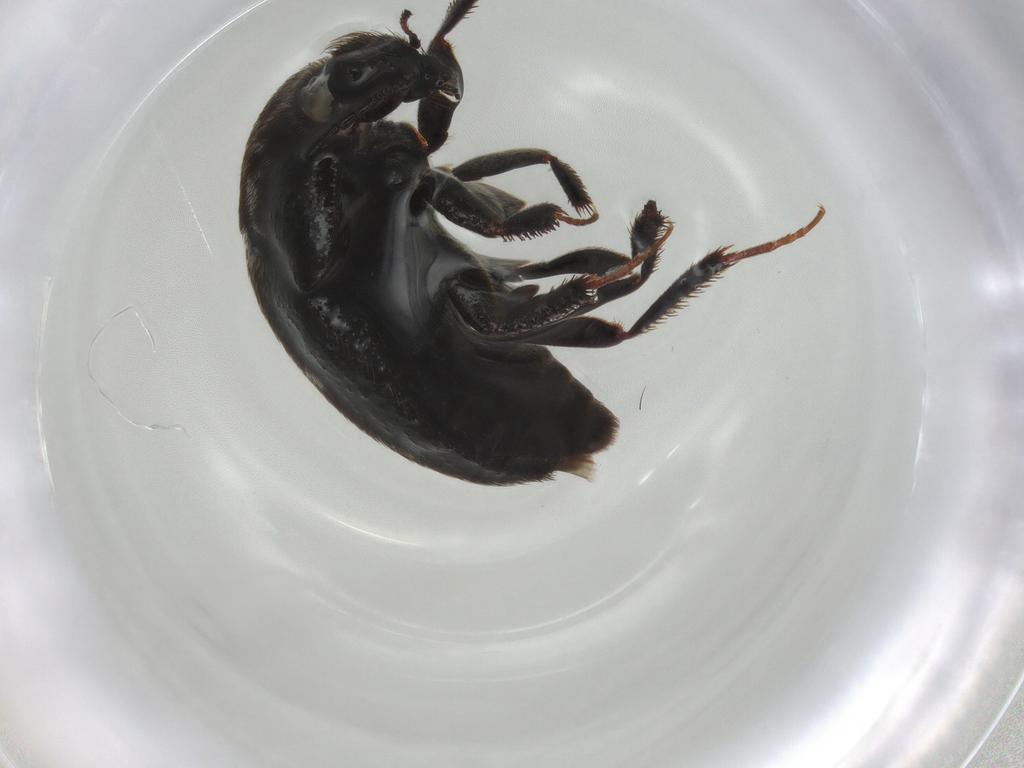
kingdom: Animalia
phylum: Arthropoda
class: Insecta
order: Coleoptera
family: Dermestidae
